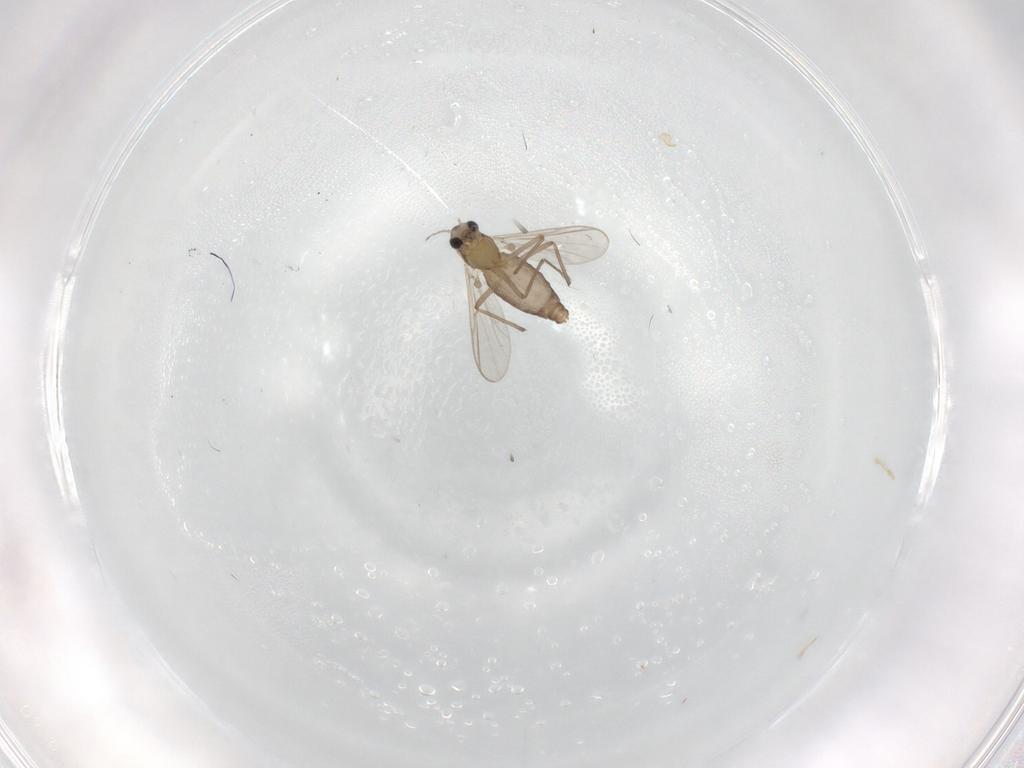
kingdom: Animalia
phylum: Arthropoda
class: Insecta
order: Diptera
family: Chironomidae
